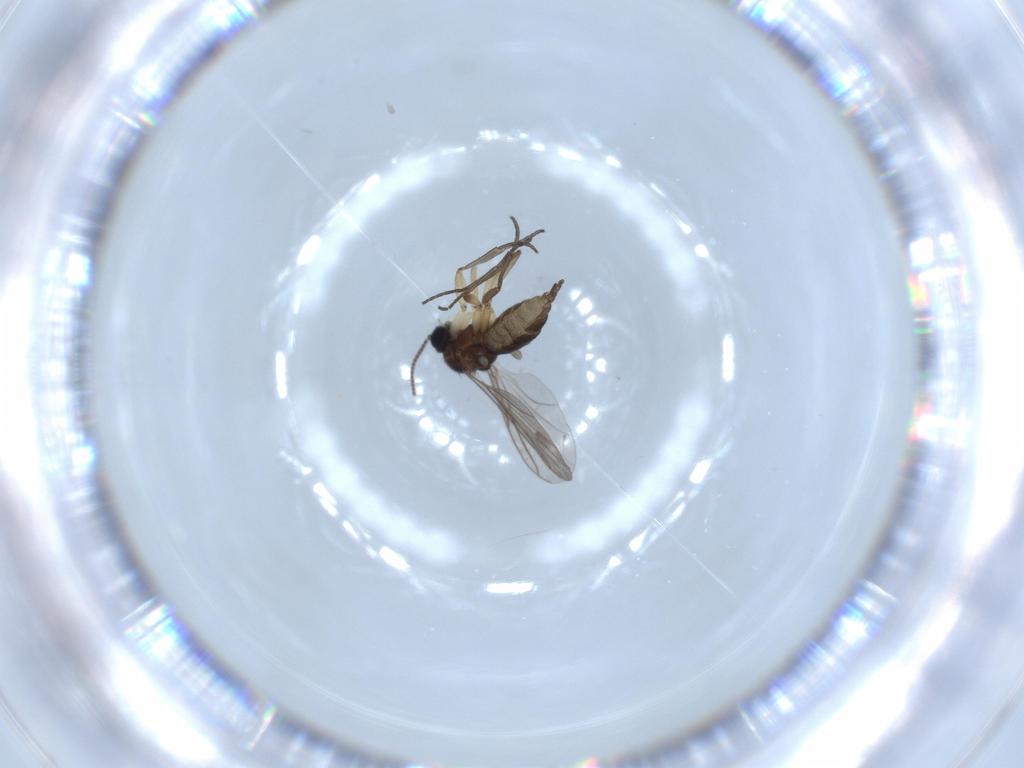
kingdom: Animalia
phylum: Arthropoda
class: Insecta
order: Diptera
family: Sciaridae
